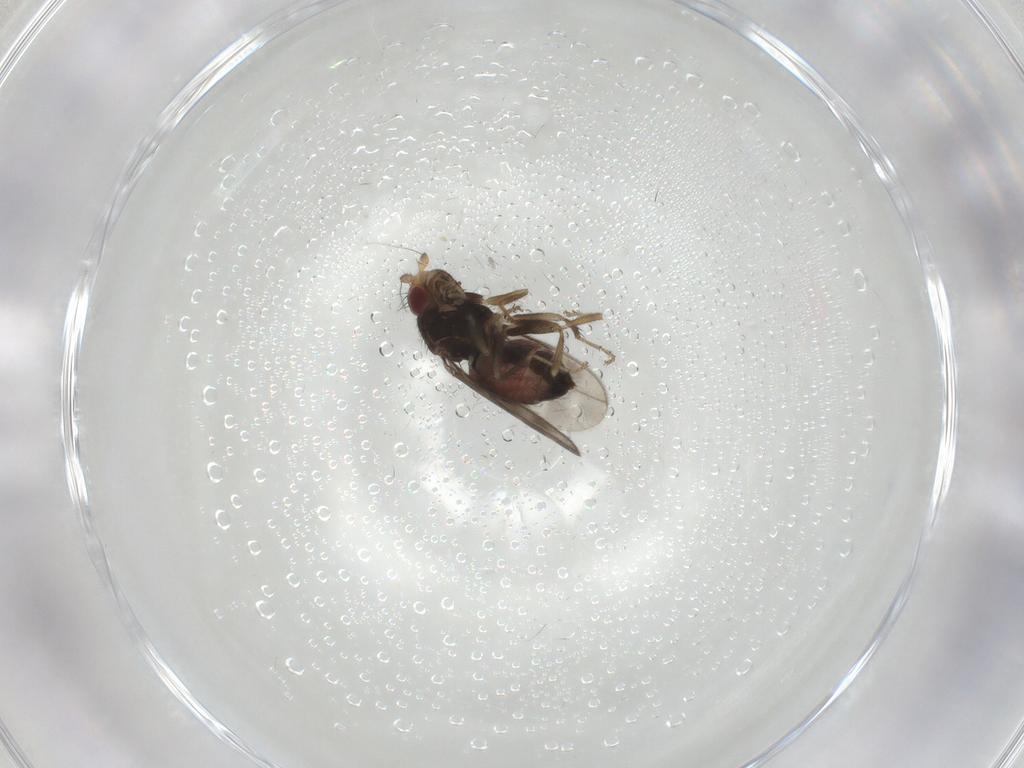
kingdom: Animalia
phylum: Arthropoda
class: Insecta
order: Diptera
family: Sphaeroceridae
